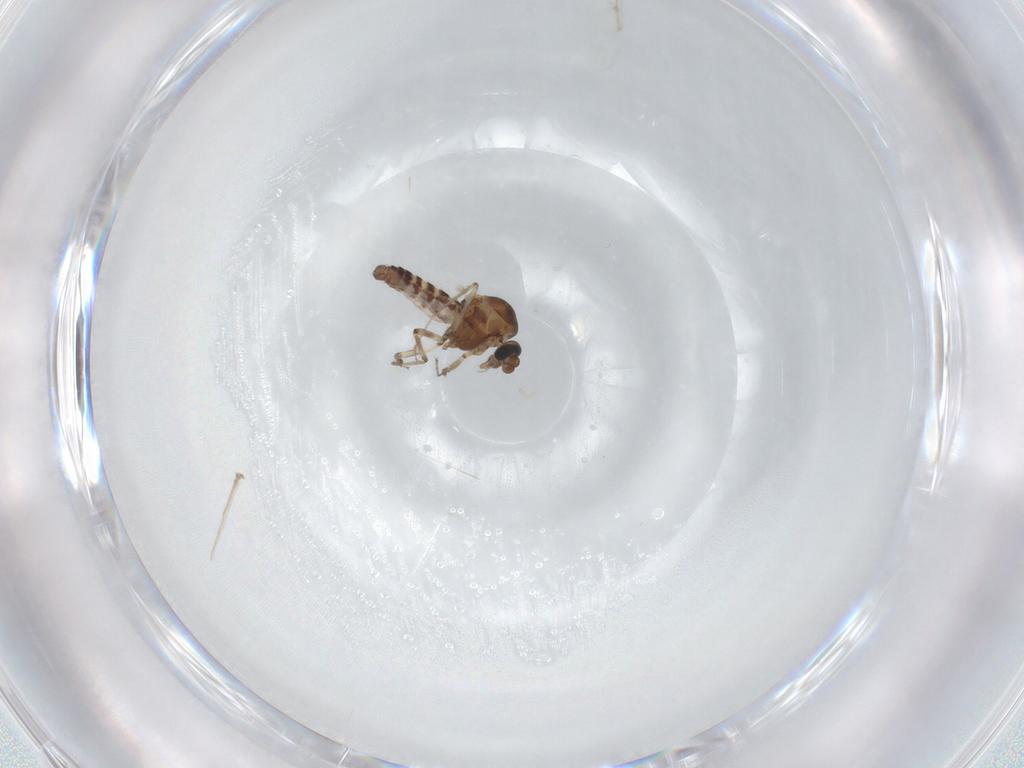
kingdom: Animalia
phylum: Arthropoda
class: Insecta
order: Diptera
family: Ceratopogonidae
